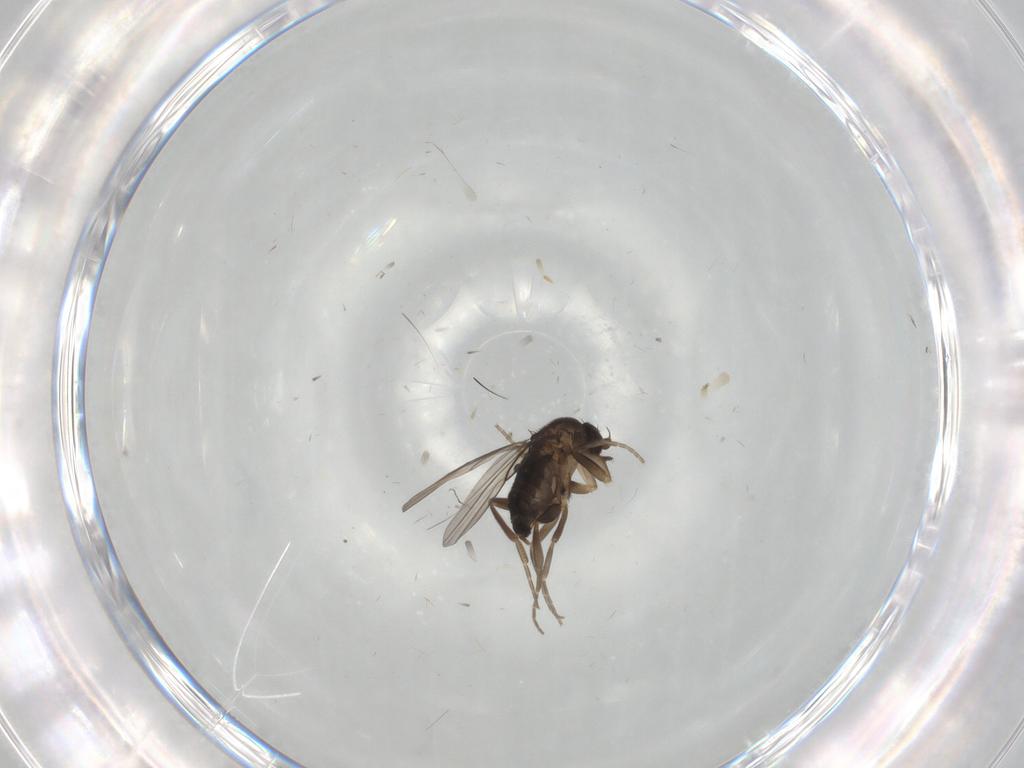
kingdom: Animalia
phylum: Arthropoda
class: Insecta
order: Diptera
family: Phoridae
